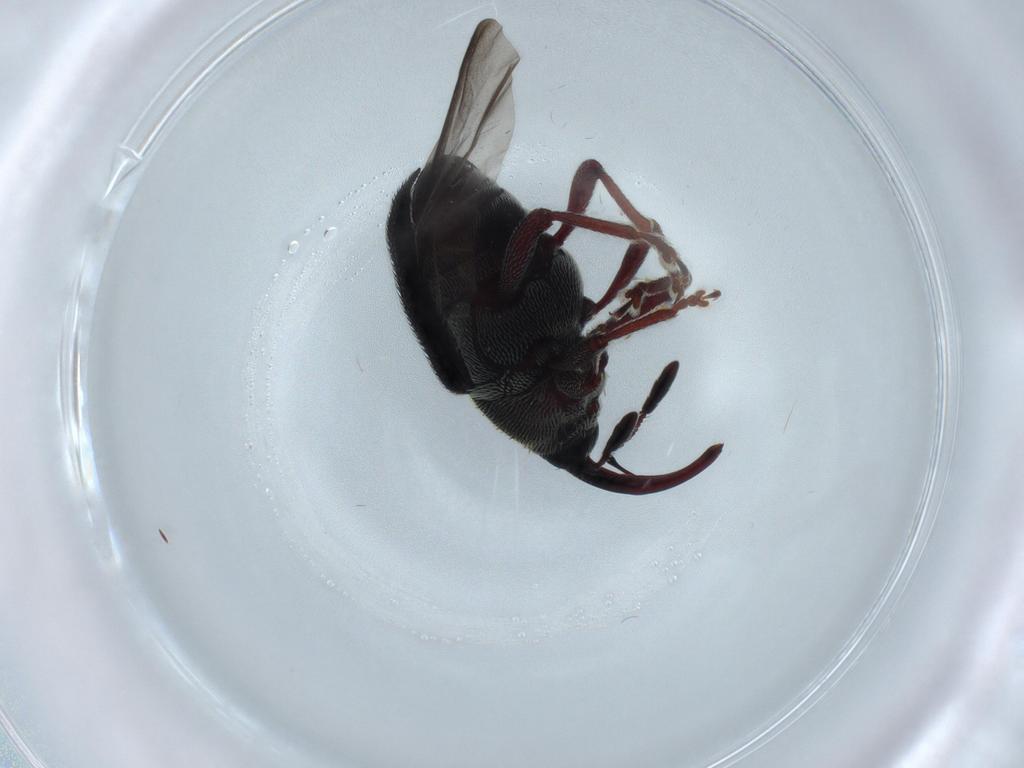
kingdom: Animalia
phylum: Arthropoda
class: Insecta
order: Coleoptera
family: Curculionidae
